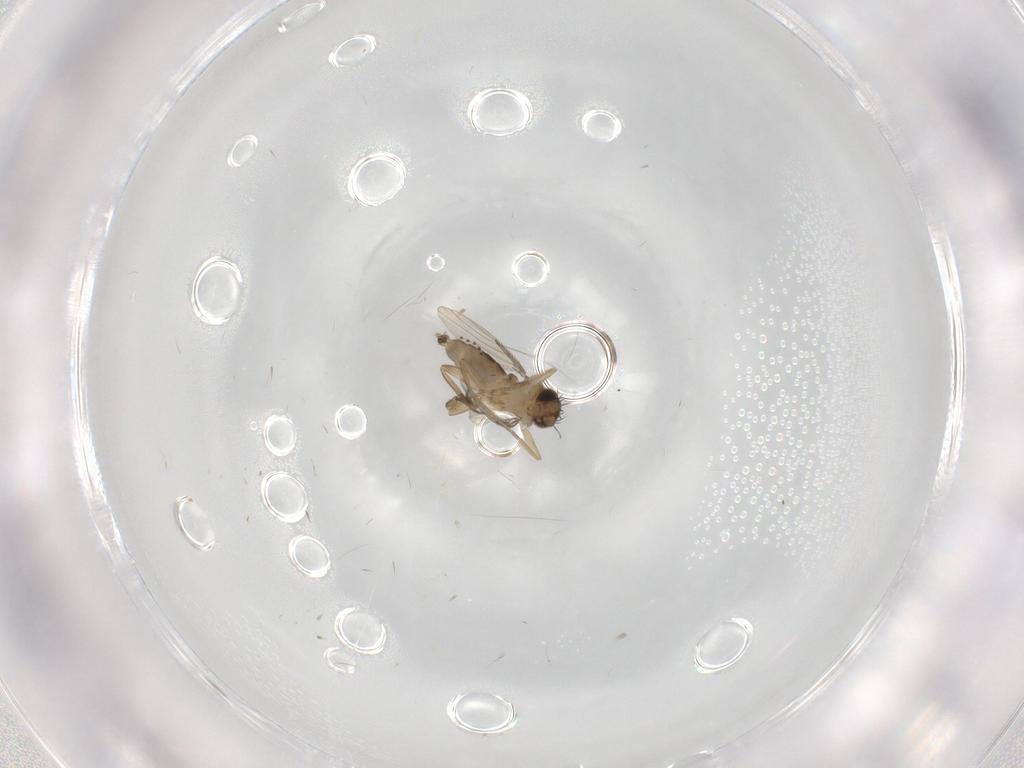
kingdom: Animalia
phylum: Arthropoda
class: Insecta
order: Diptera
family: Phoridae
